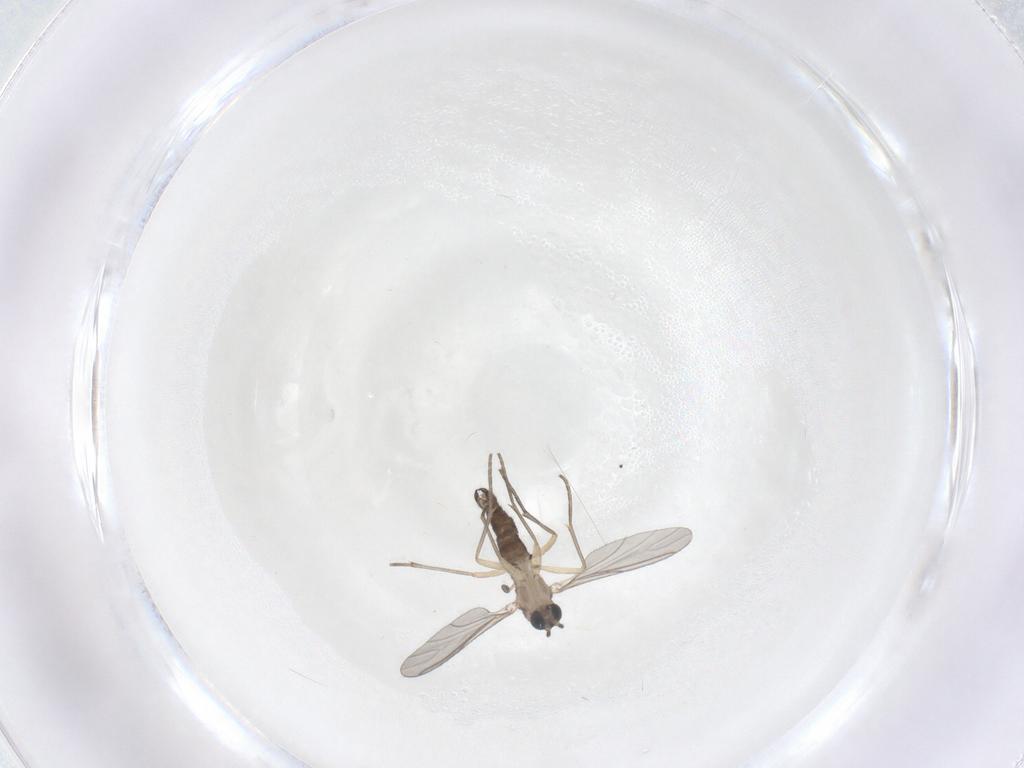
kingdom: Animalia
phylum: Arthropoda
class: Insecta
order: Diptera
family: Sciaridae
